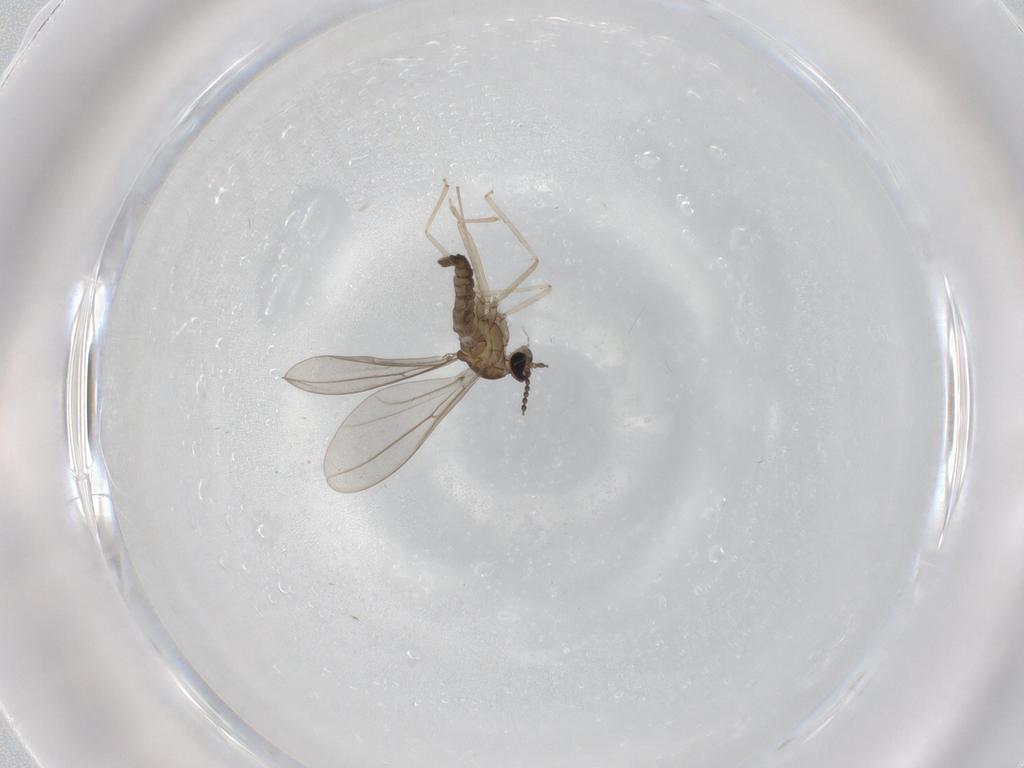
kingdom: Animalia
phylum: Arthropoda
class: Insecta
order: Diptera
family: Cecidomyiidae
